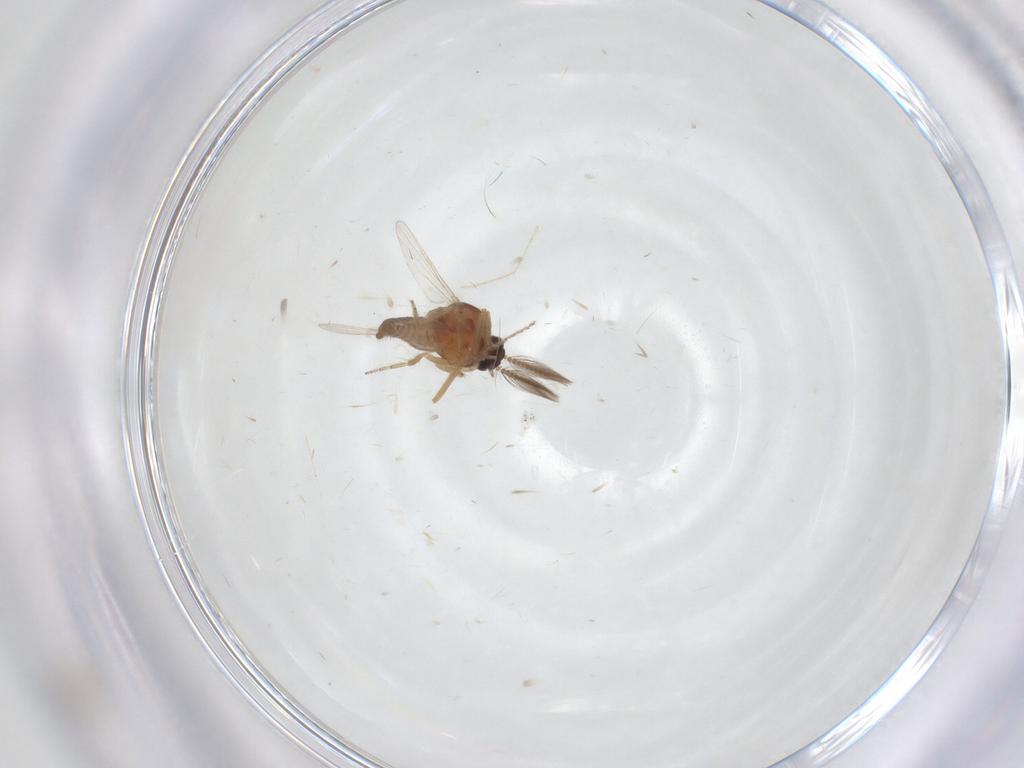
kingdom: Animalia
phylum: Arthropoda
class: Insecta
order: Diptera
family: Ceratopogonidae
